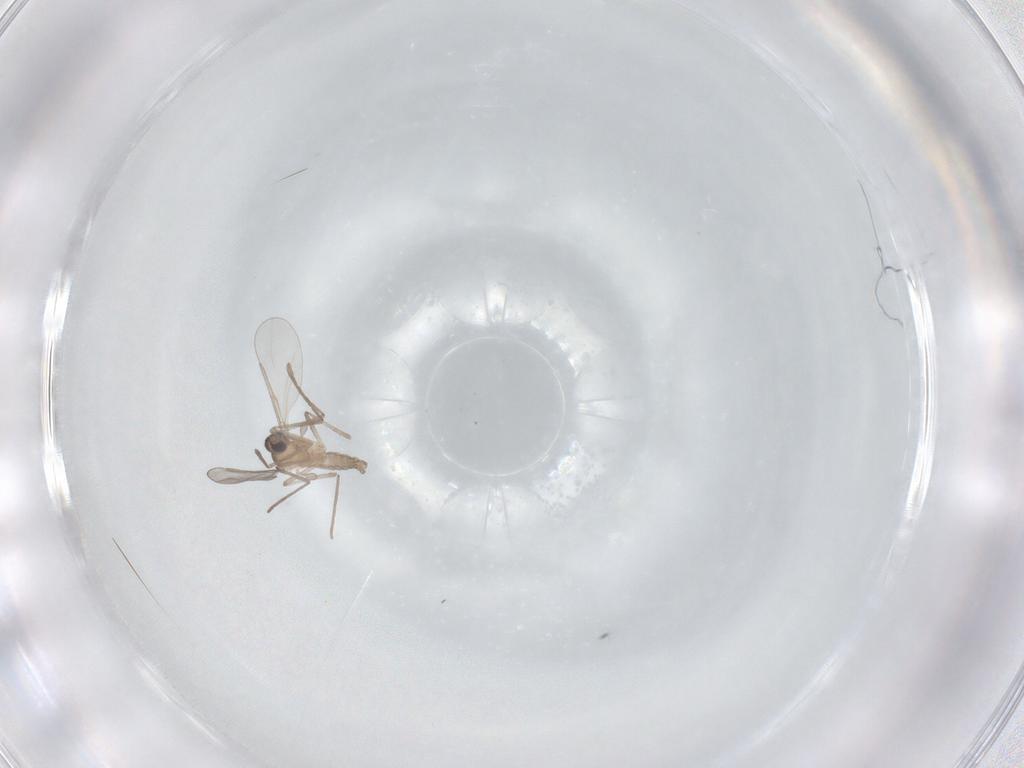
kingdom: Animalia
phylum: Arthropoda
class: Insecta
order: Diptera
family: Cecidomyiidae
